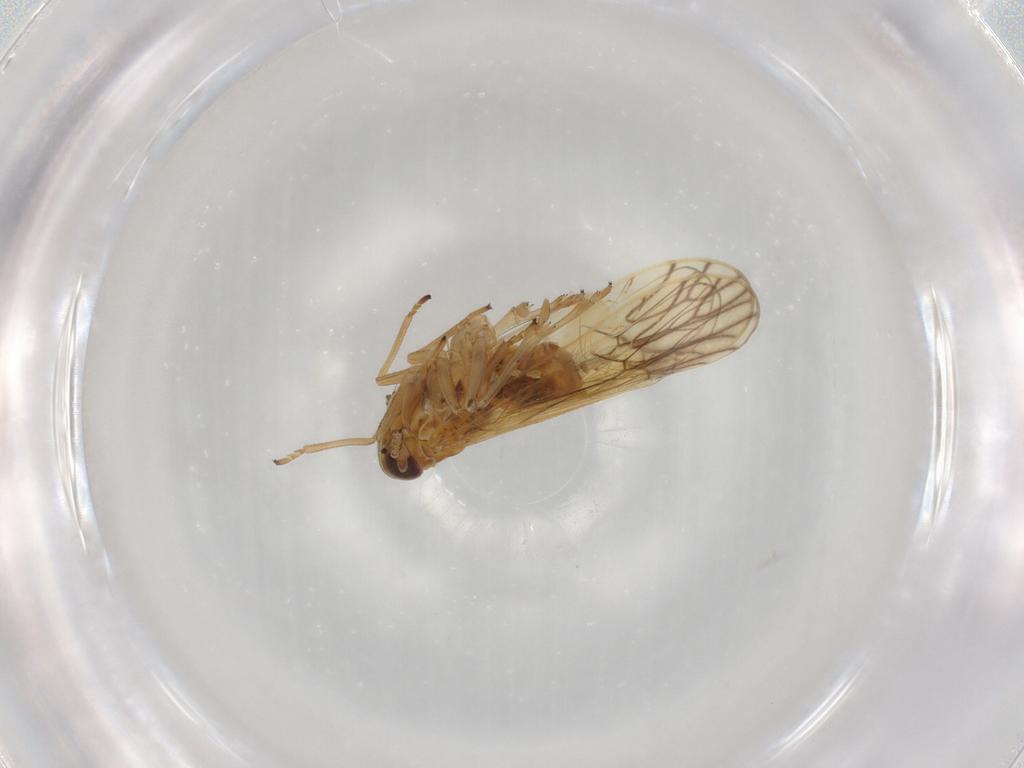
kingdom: Animalia
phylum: Arthropoda
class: Insecta
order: Hemiptera
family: Delphacidae
